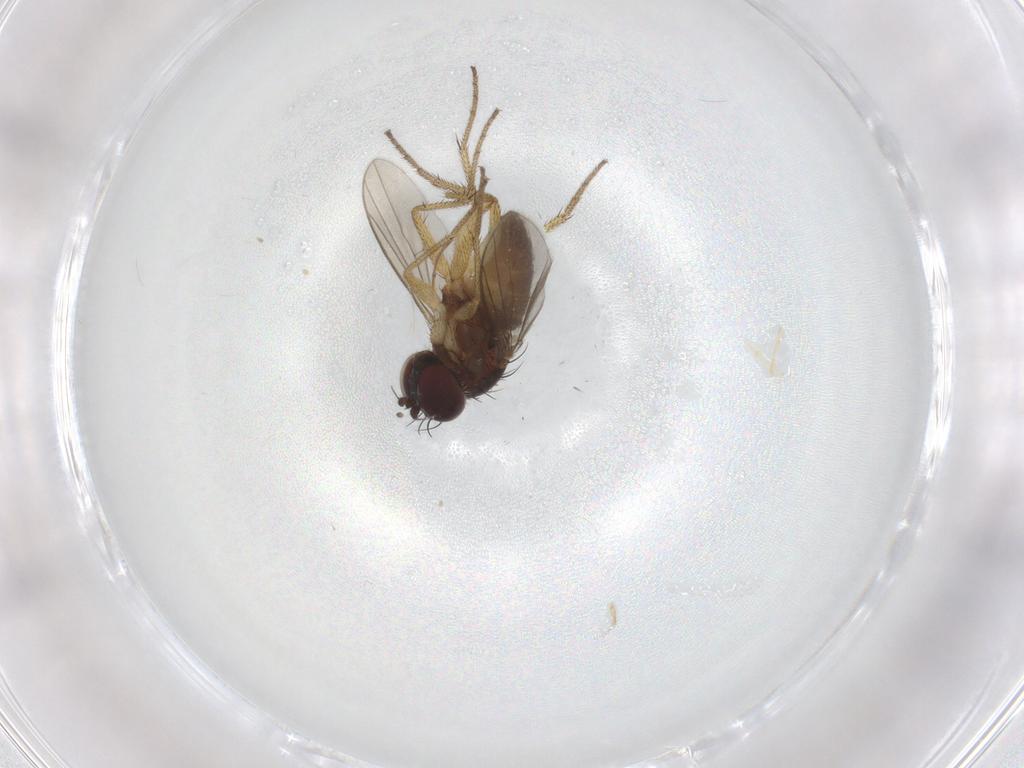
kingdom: Animalia
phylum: Arthropoda
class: Insecta
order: Diptera
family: Dolichopodidae
